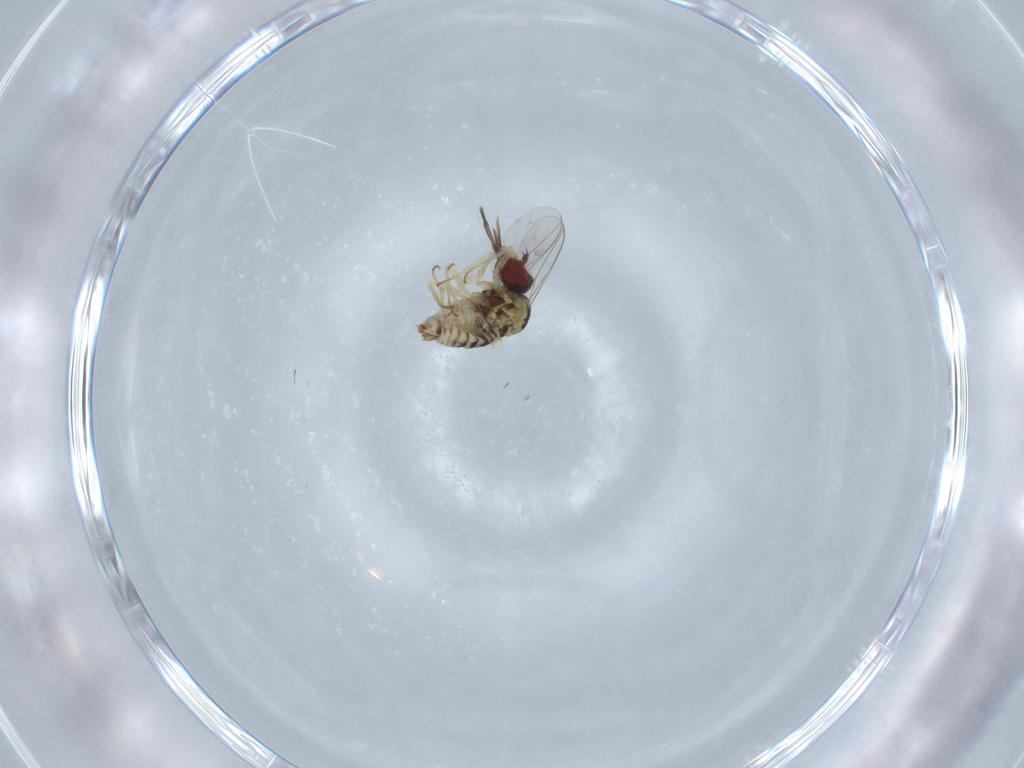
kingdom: Animalia
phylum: Arthropoda
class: Insecta
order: Diptera
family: Bombyliidae
